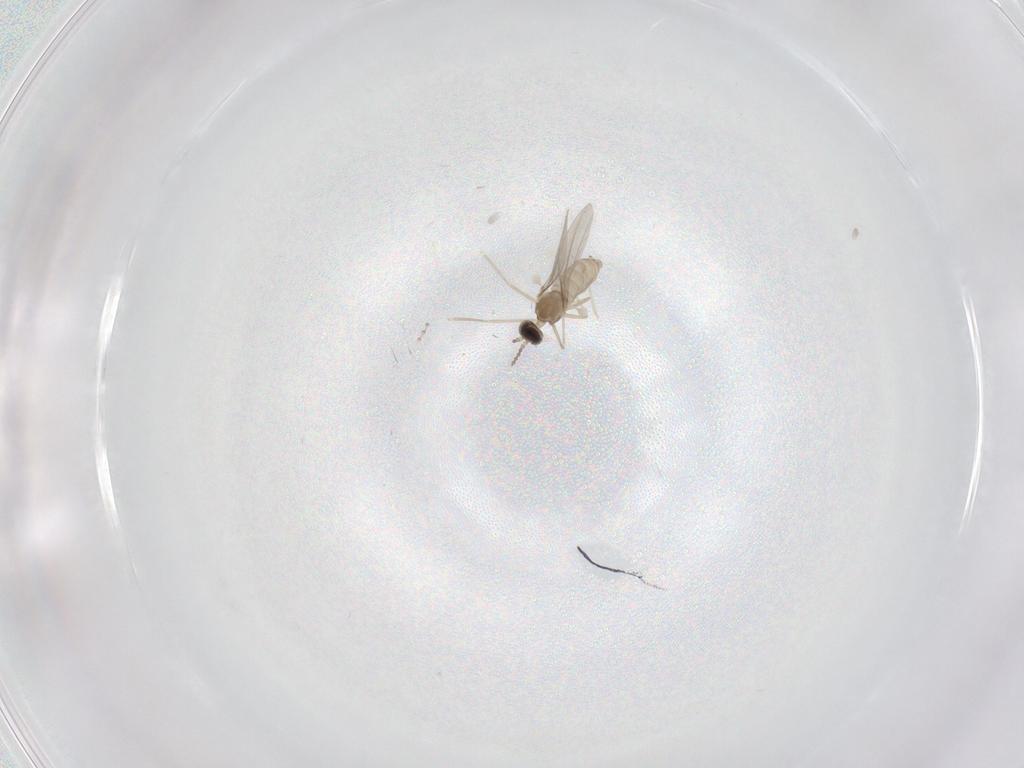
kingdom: Animalia
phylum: Arthropoda
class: Insecta
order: Diptera
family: Cecidomyiidae
